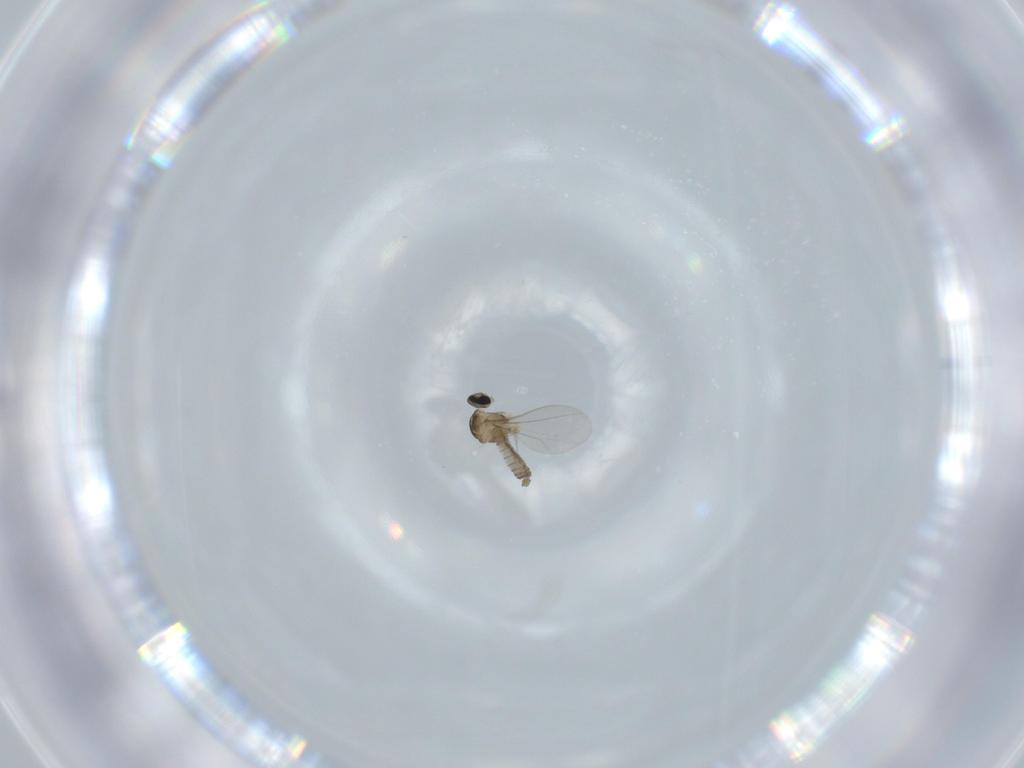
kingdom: Animalia
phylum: Arthropoda
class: Insecta
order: Diptera
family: Cecidomyiidae
